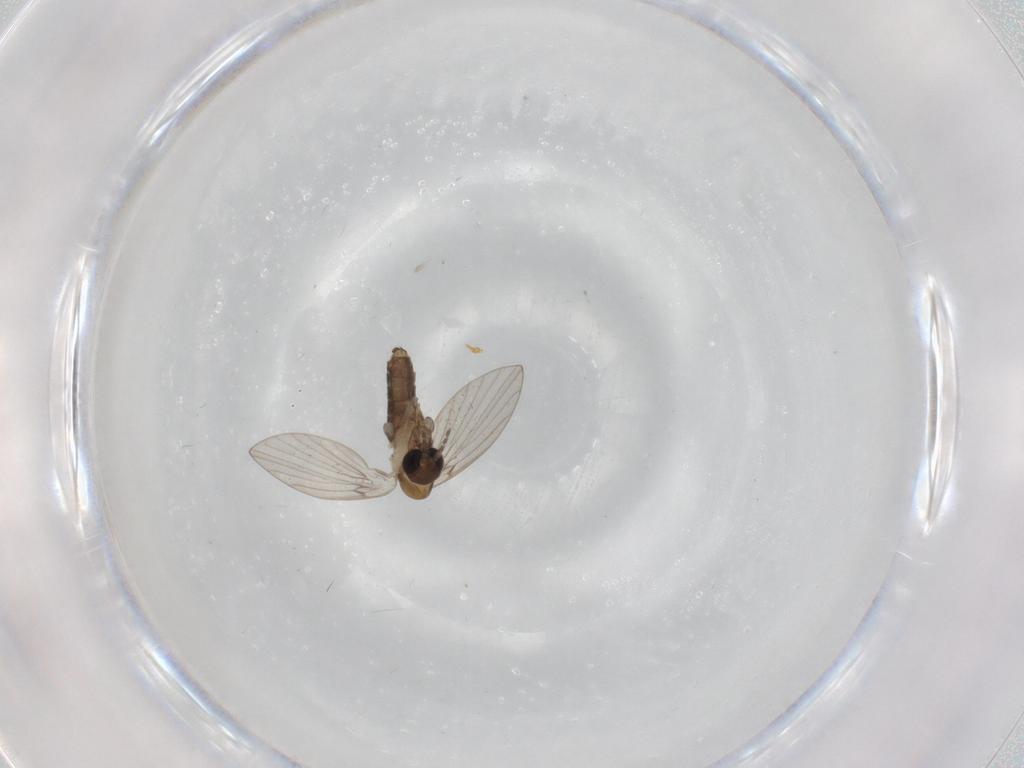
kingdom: Animalia
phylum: Arthropoda
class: Insecta
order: Diptera
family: Psychodidae
